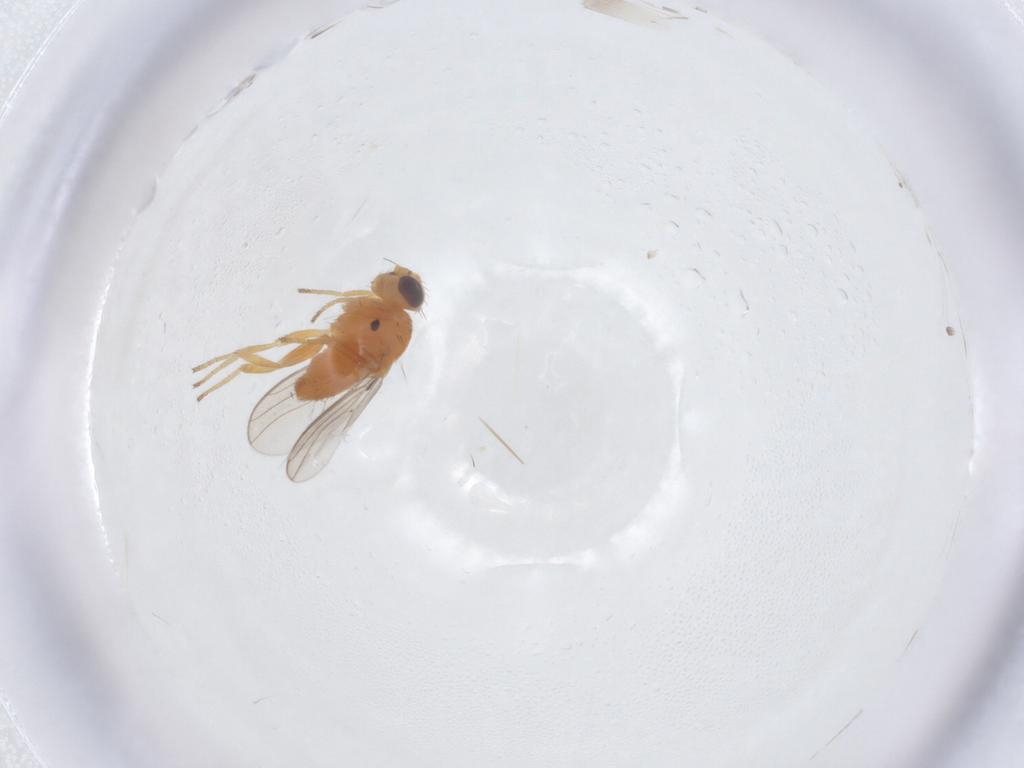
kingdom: Animalia
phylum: Arthropoda
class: Insecta
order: Diptera
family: Chloropidae
